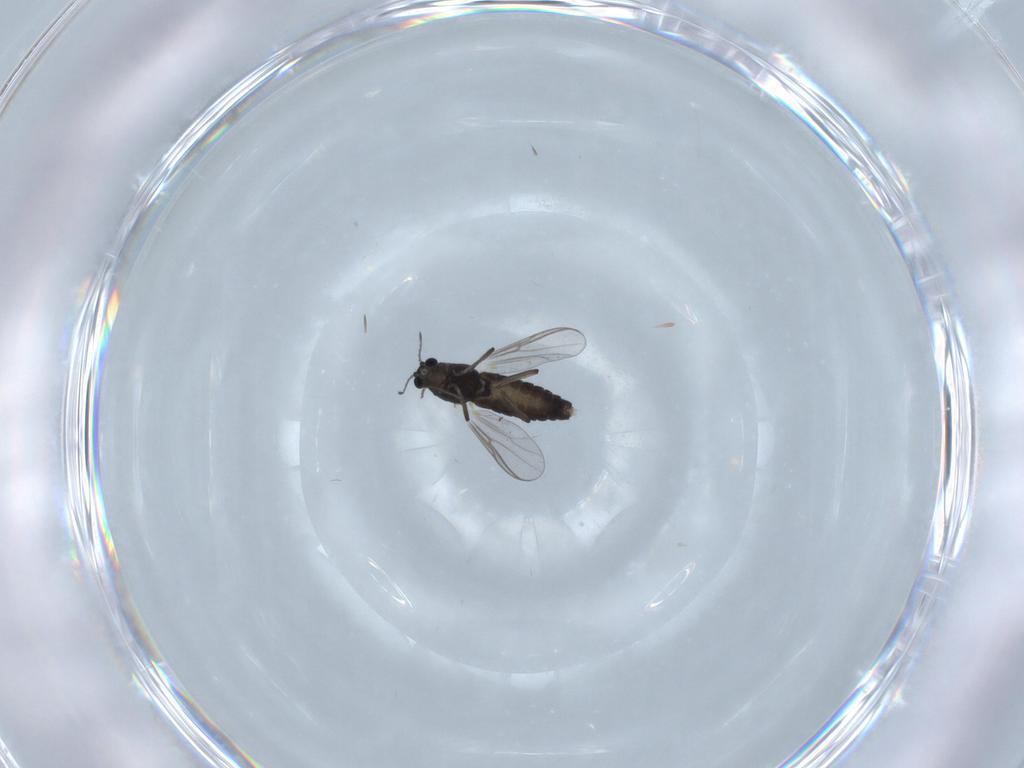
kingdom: Animalia
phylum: Arthropoda
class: Insecta
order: Diptera
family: Chironomidae
